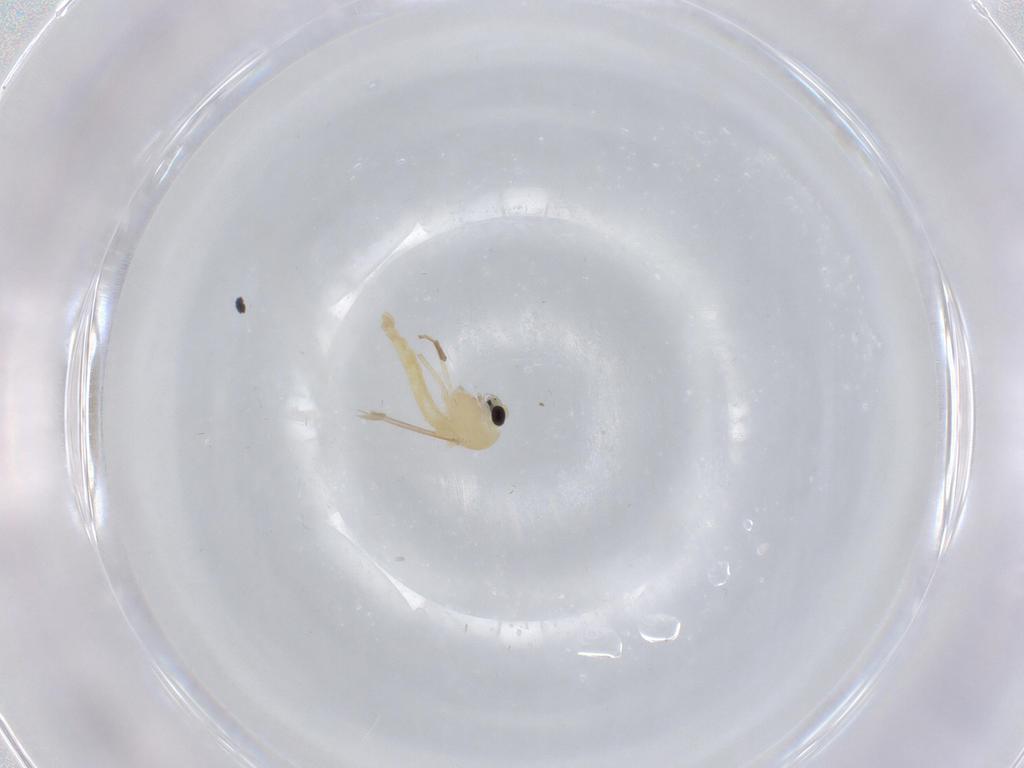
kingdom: Animalia
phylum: Arthropoda
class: Insecta
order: Diptera
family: Chironomidae
